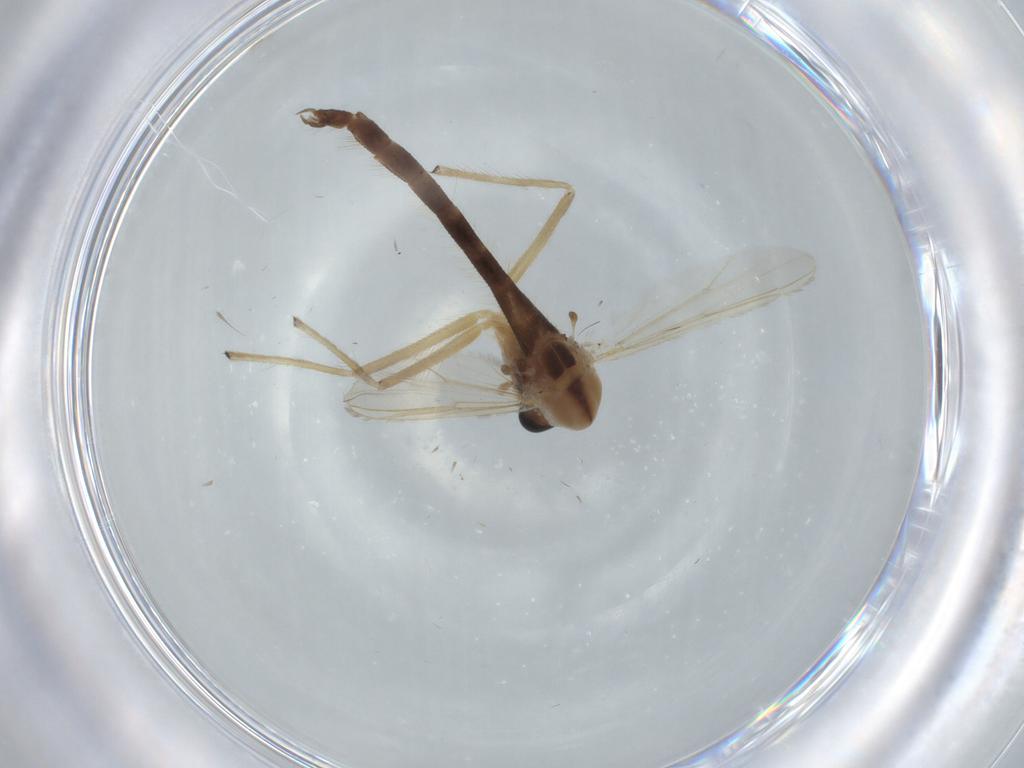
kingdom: Animalia
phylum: Arthropoda
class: Insecta
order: Diptera
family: Chironomidae
